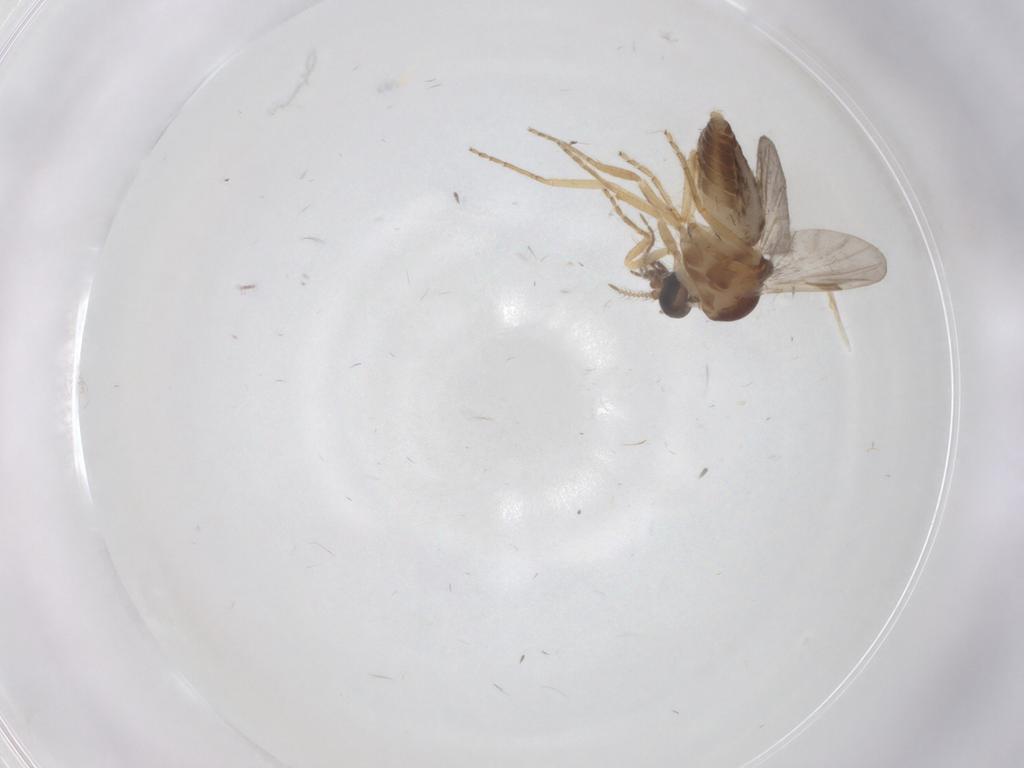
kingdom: Animalia
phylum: Arthropoda
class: Insecta
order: Diptera
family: Ceratopogonidae
